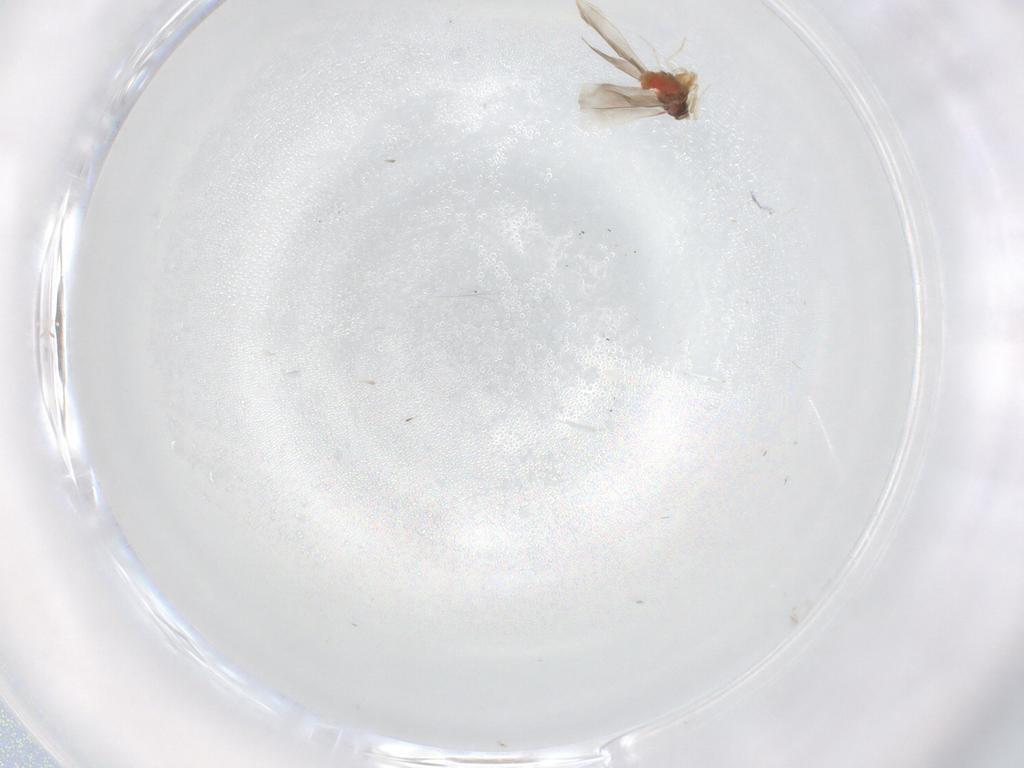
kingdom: Animalia
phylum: Arthropoda
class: Insecta
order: Hemiptera
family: Aleyrodidae
